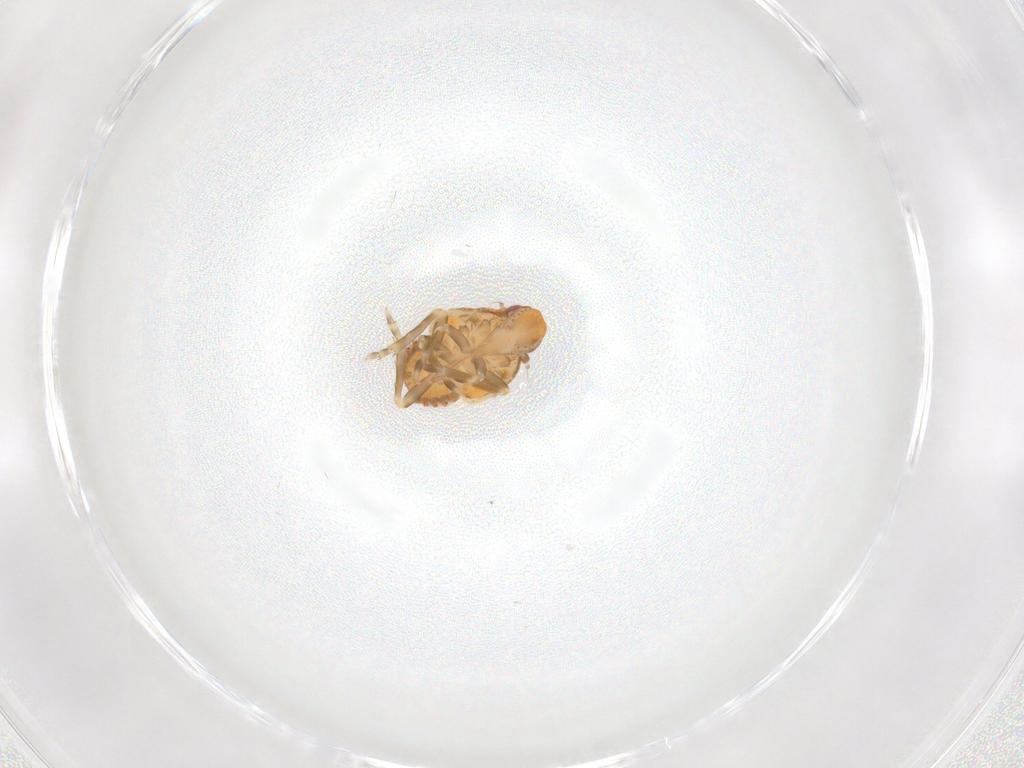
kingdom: Animalia
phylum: Arthropoda
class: Insecta
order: Hemiptera
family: Flatidae
